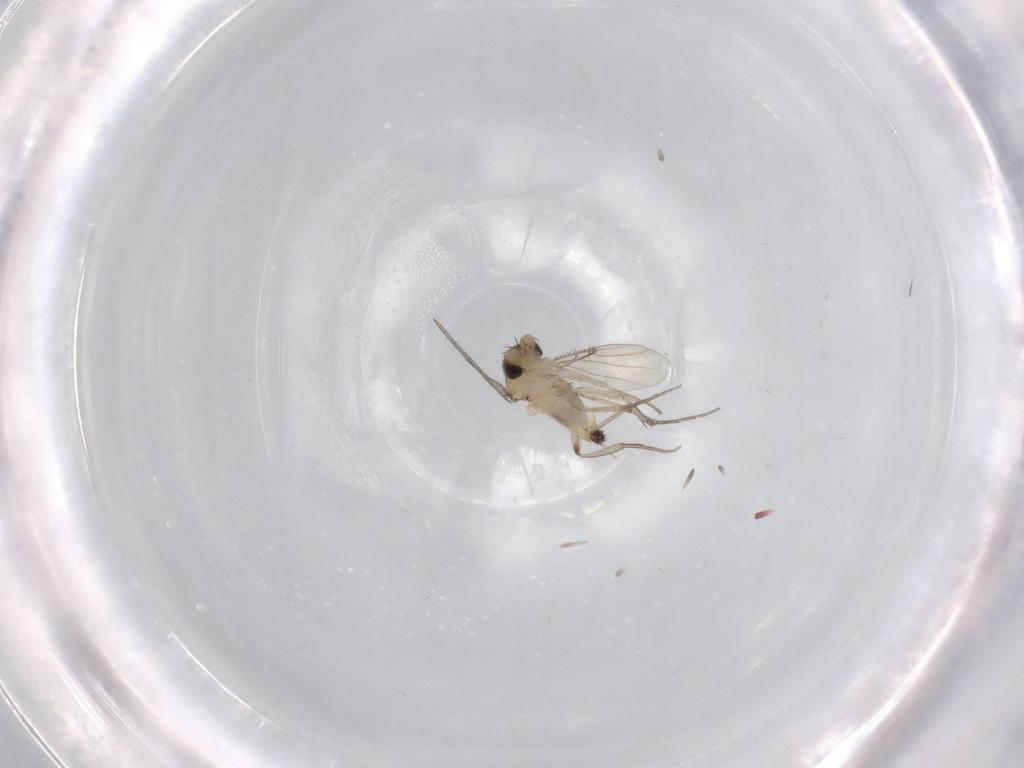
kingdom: Animalia
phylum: Arthropoda
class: Insecta
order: Diptera
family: Phoridae
